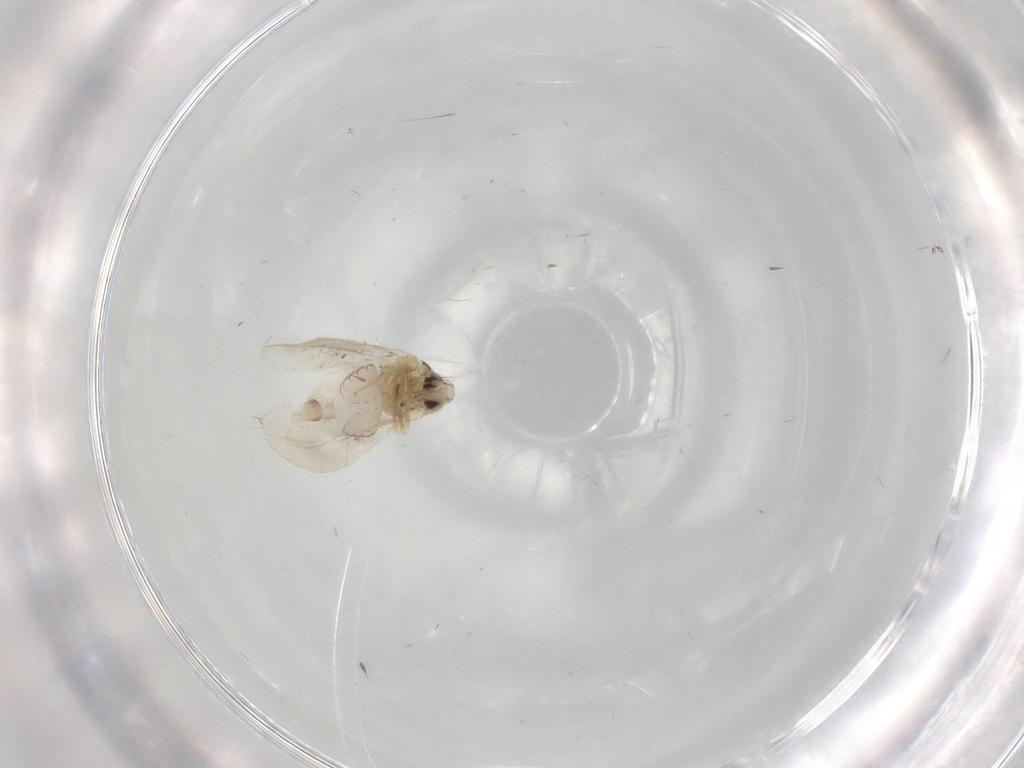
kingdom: Animalia
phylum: Arthropoda
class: Insecta
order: Hemiptera
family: Aleyrodidae
